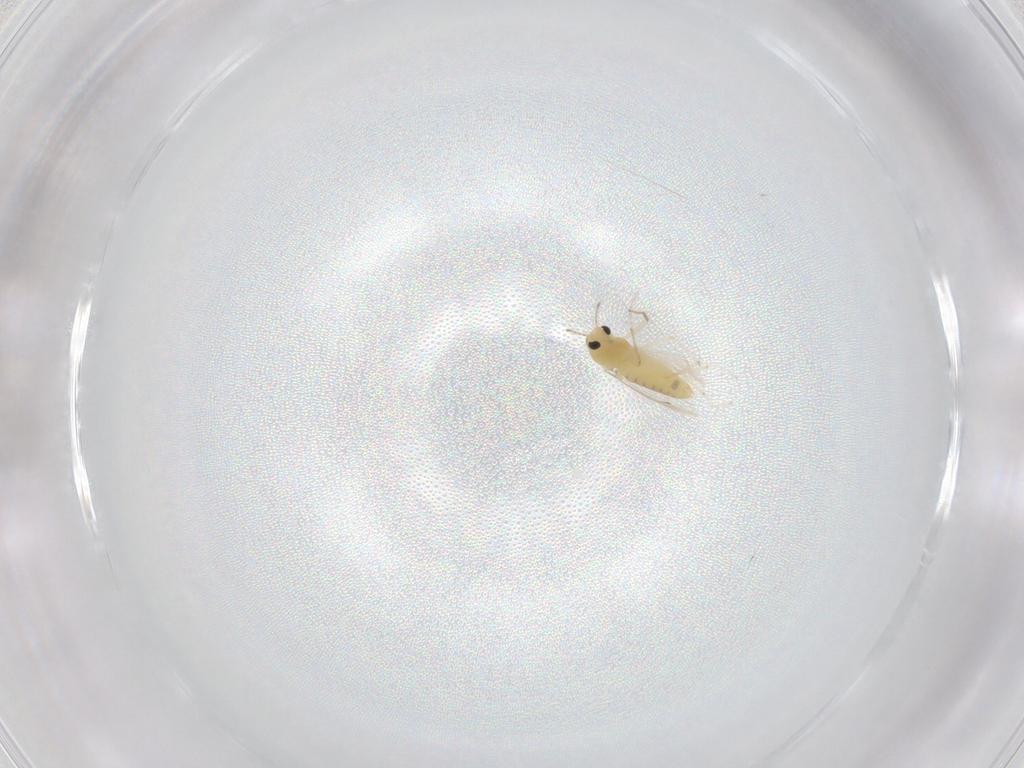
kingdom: Animalia
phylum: Arthropoda
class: Insecta
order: Diptera
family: Chironomidae
